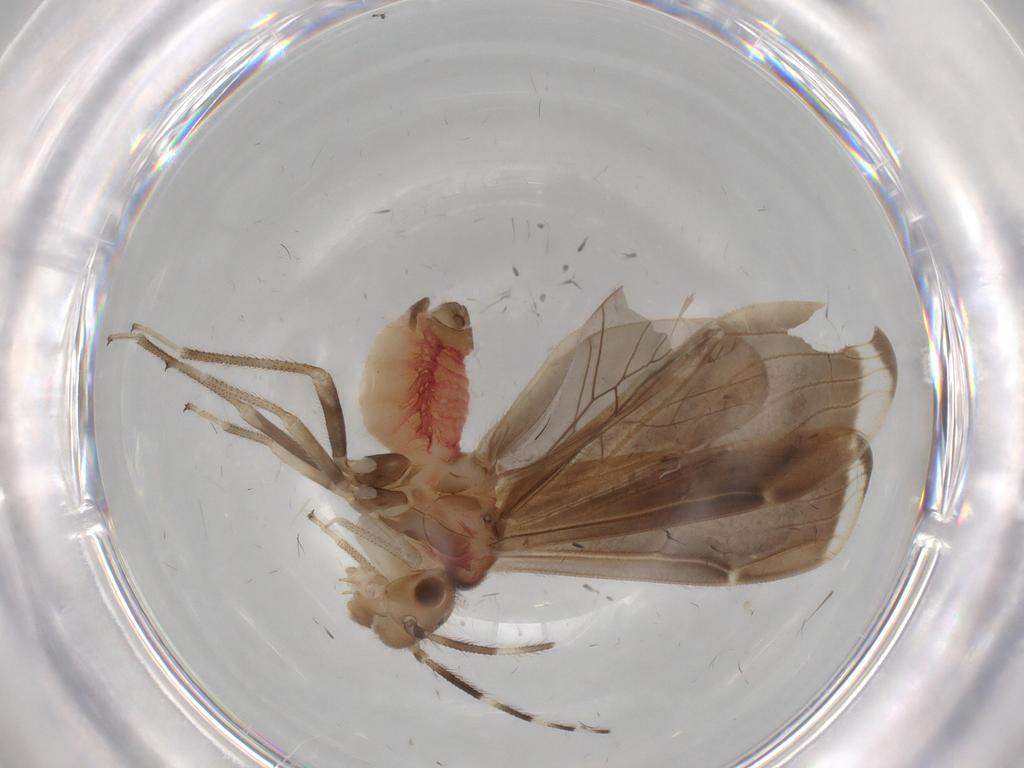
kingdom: Animalia
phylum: Arthropoda
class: Insecta
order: Psocodea
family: Amphipsocidae
